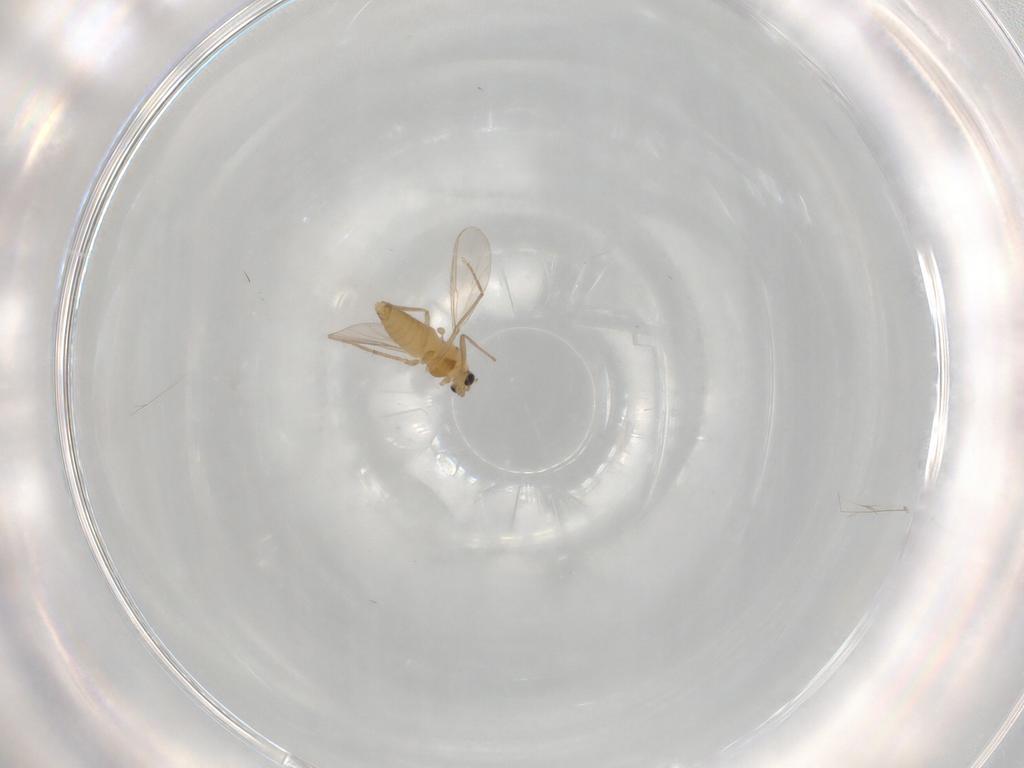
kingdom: Animalia
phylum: Arthropoda
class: Insecta
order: Diptera
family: Chironomidae
